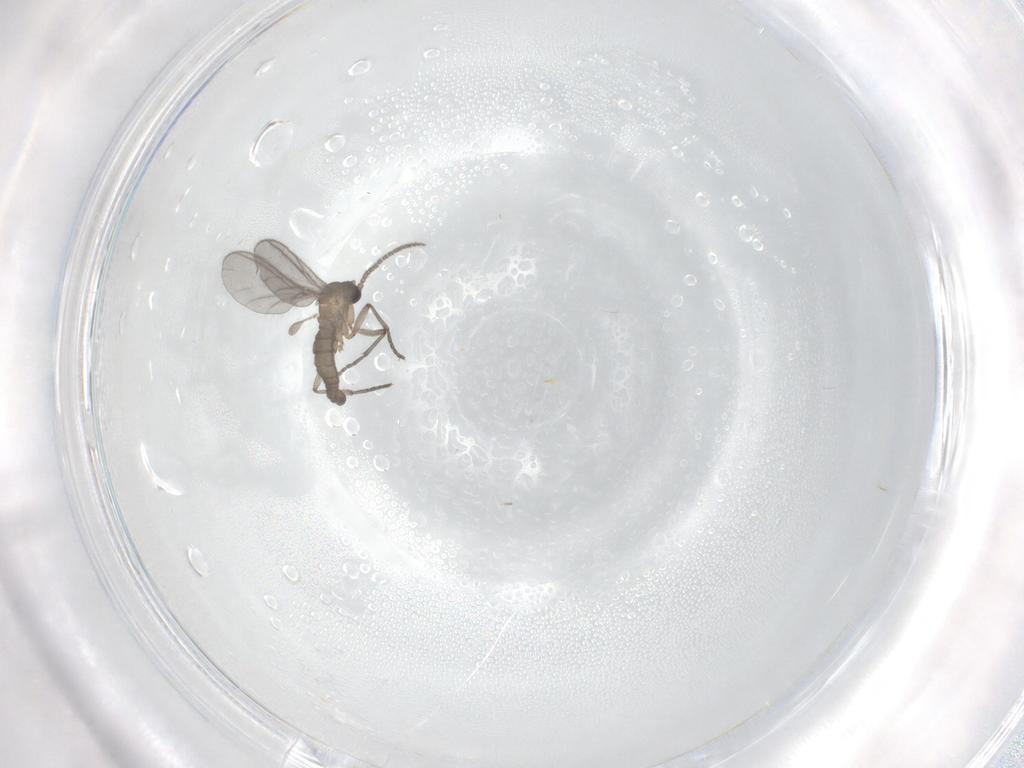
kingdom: Animalia
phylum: Arthropoda
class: Insecta
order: Diptera
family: Sciaridae
